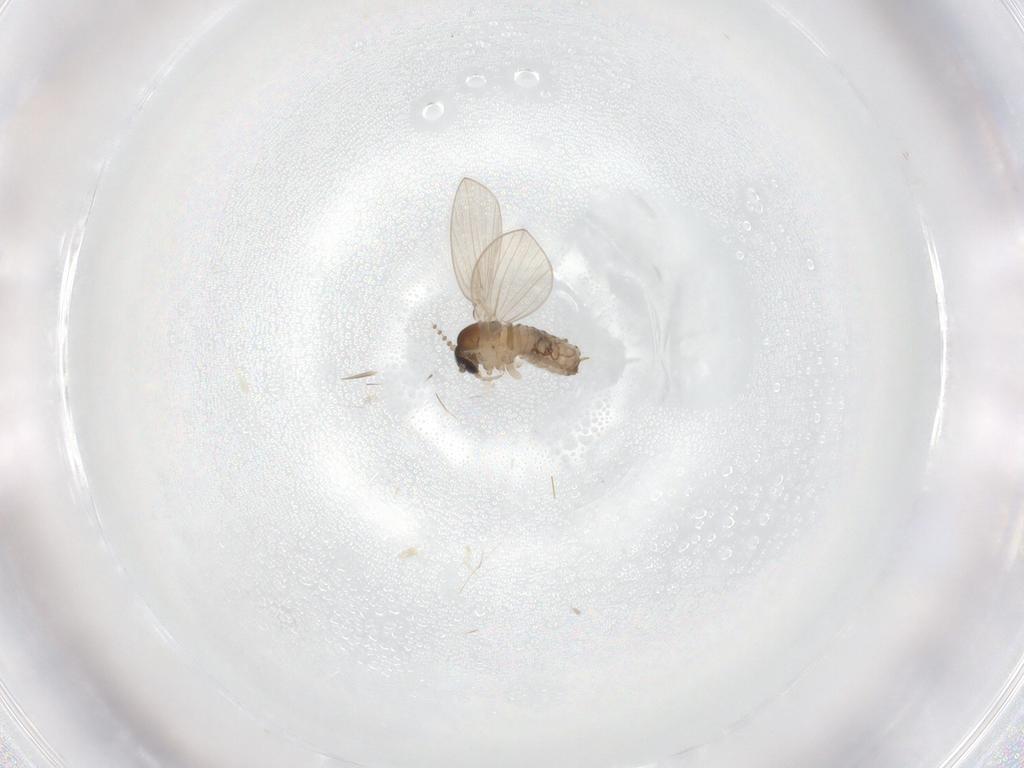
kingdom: Animalia
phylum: Arthropoda
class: Insecta
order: Diptera
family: Psychodidae
